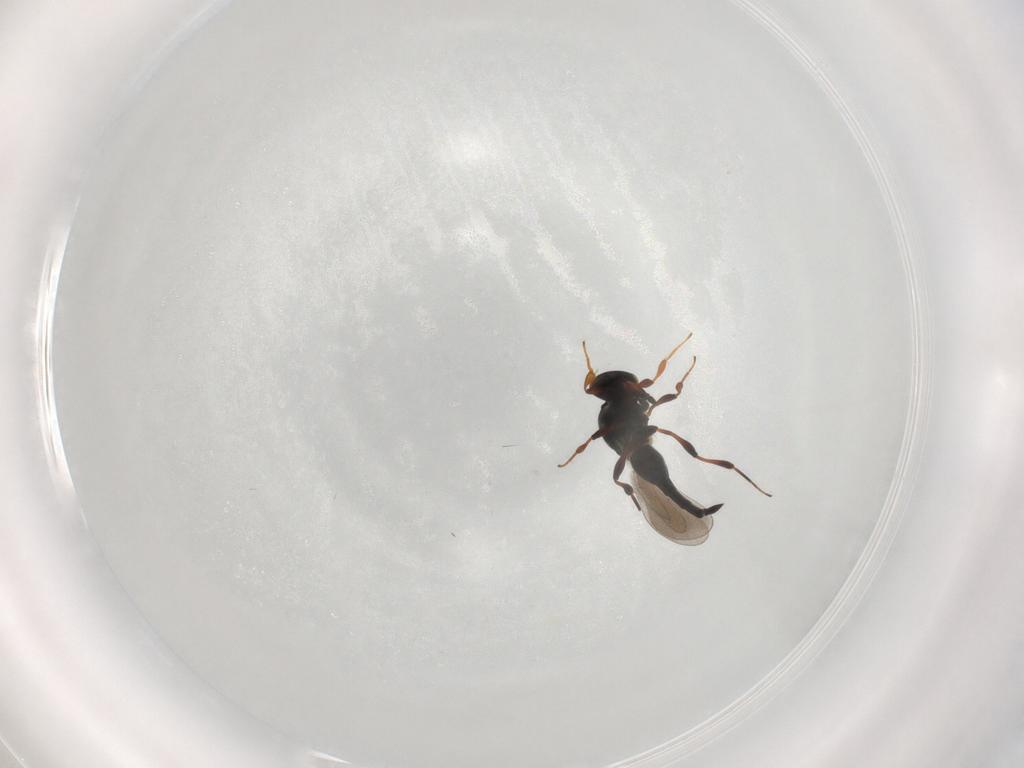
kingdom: Animalia
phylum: Arthropoda
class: Insecta
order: Hymenoptera
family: Platygastridae
